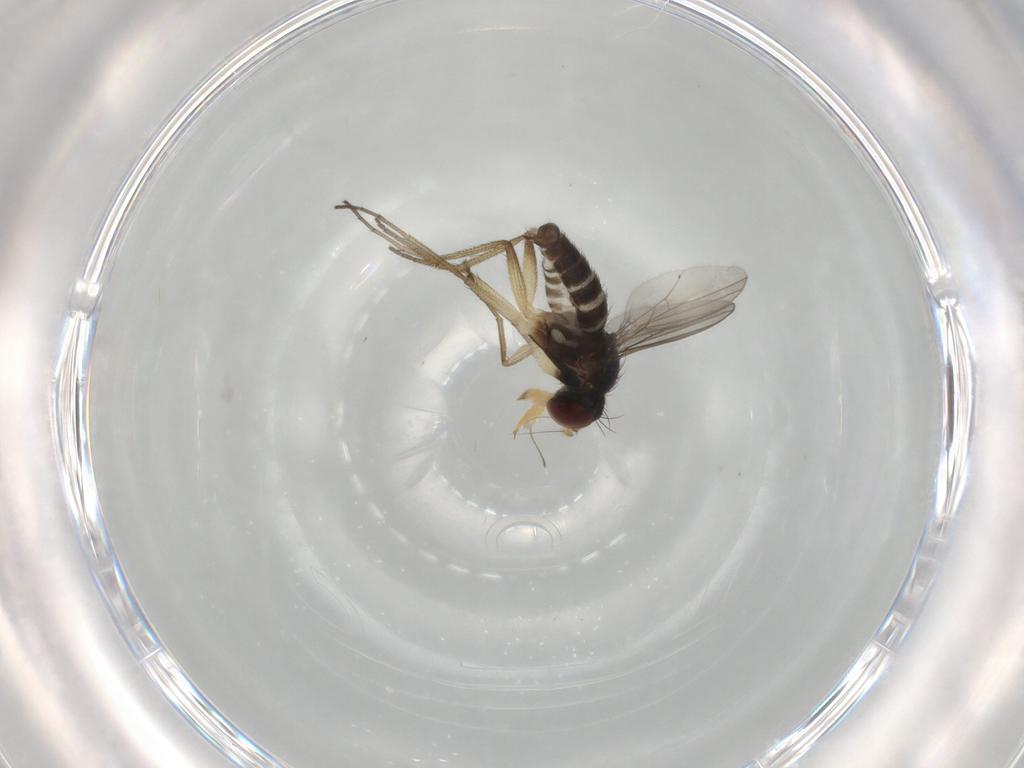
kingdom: Animalia
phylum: Arthropoda
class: Insecta
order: Diptera
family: Dolichopodidae
